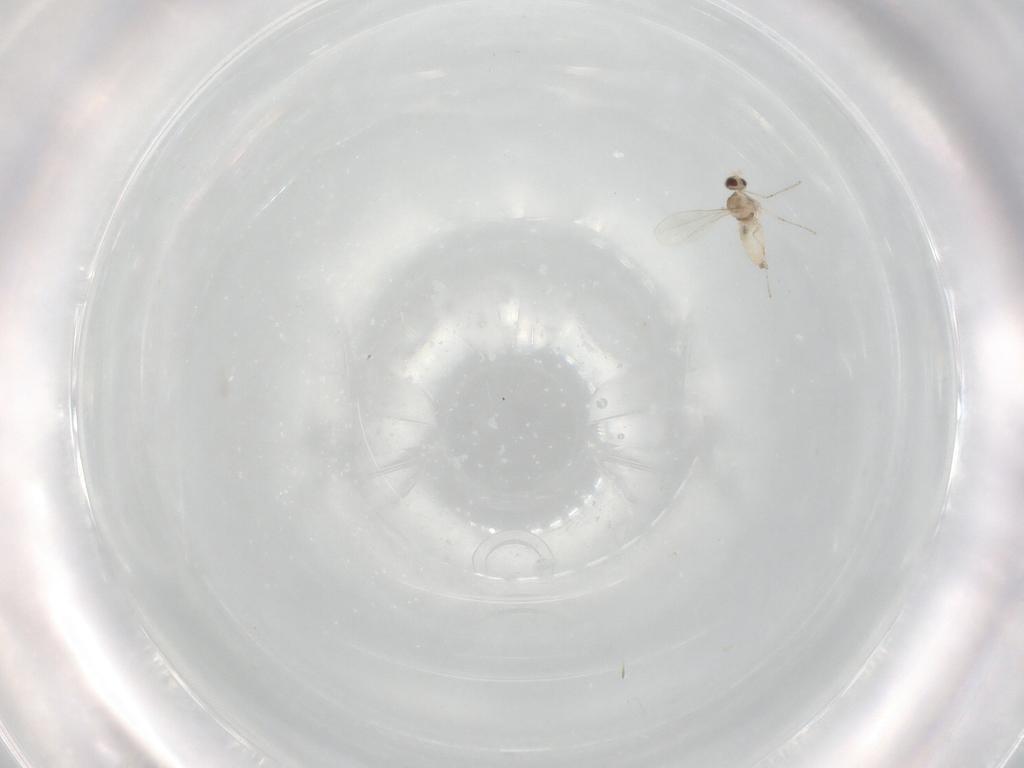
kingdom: Animalia
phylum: Arthropoda
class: Insecta
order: Diptera
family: Cecidomyiidae
